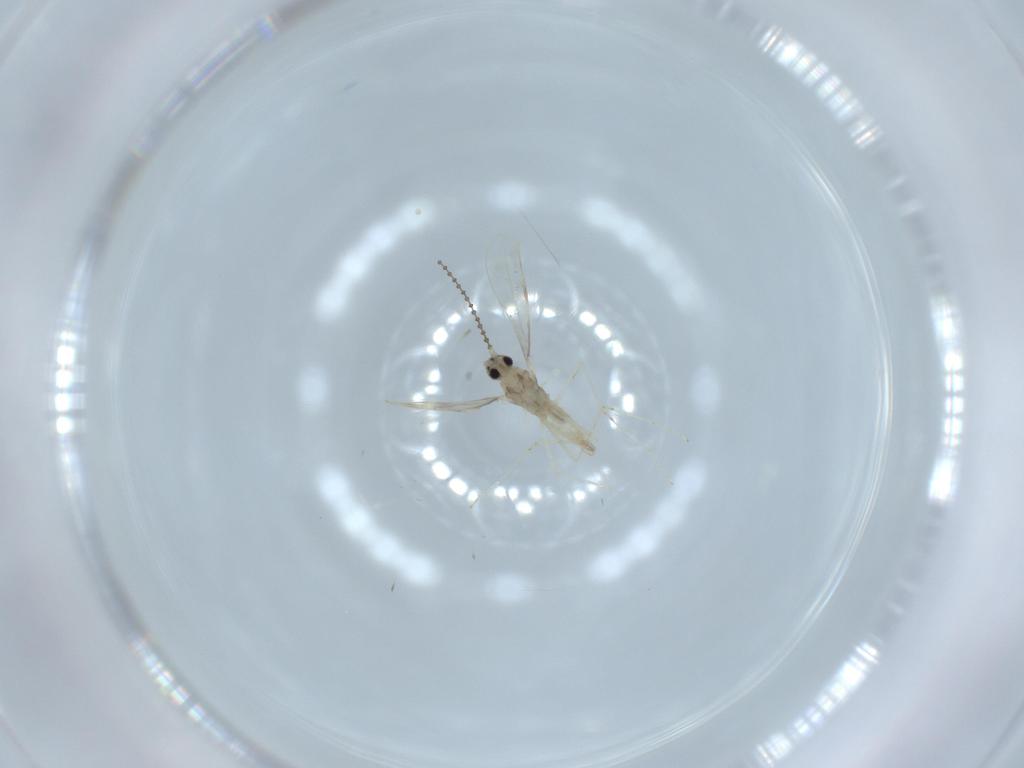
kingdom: Animalia
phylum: Arthropoda
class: Insecta
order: Diptera
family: Cecidomyiidae
